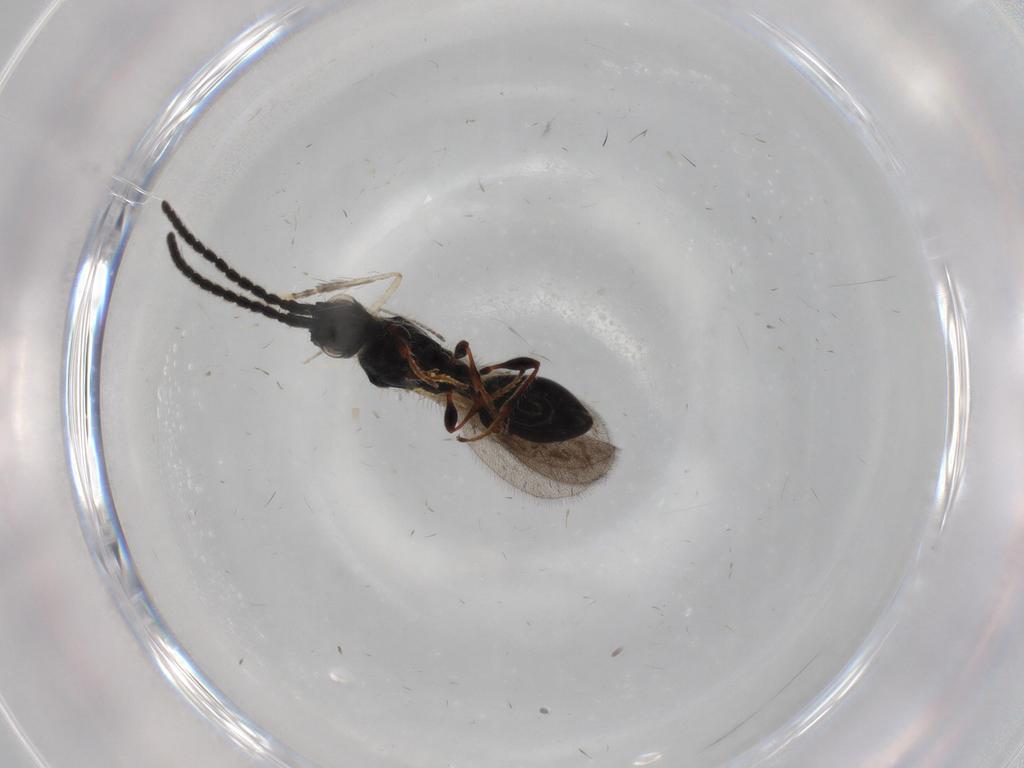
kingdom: Animalia
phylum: Arthropoda
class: Insecta
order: Hymenoptera
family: Diapriidae
